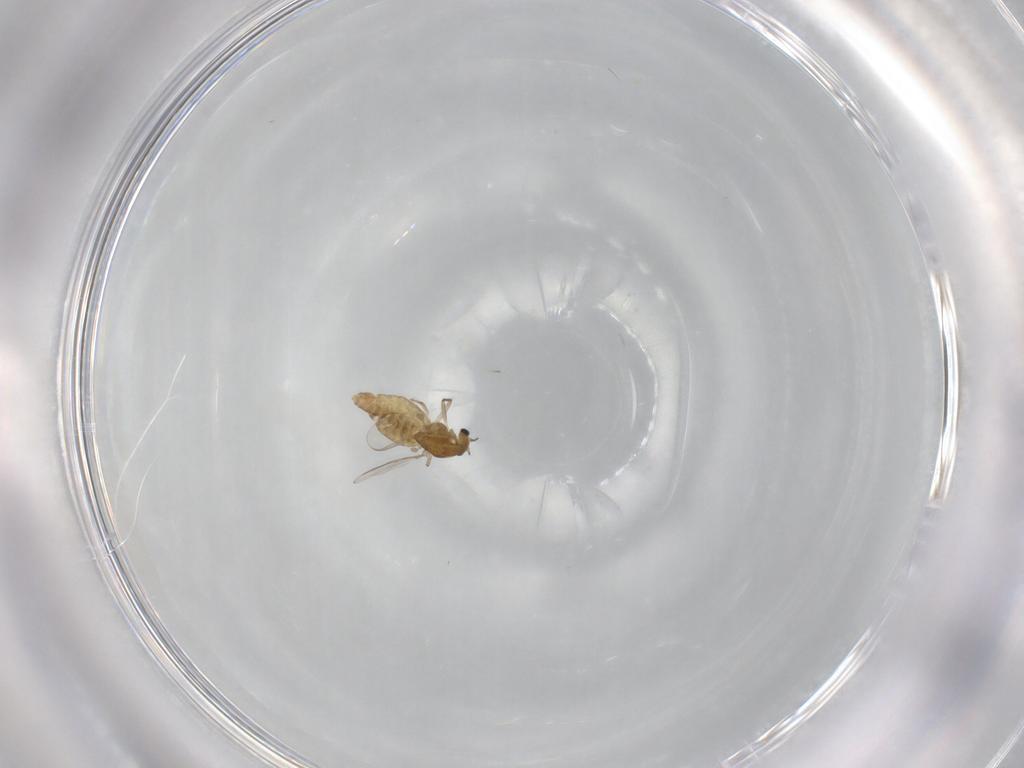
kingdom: Animalia
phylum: Arthropoda
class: Insecta
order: Diptera
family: Chironomidae
